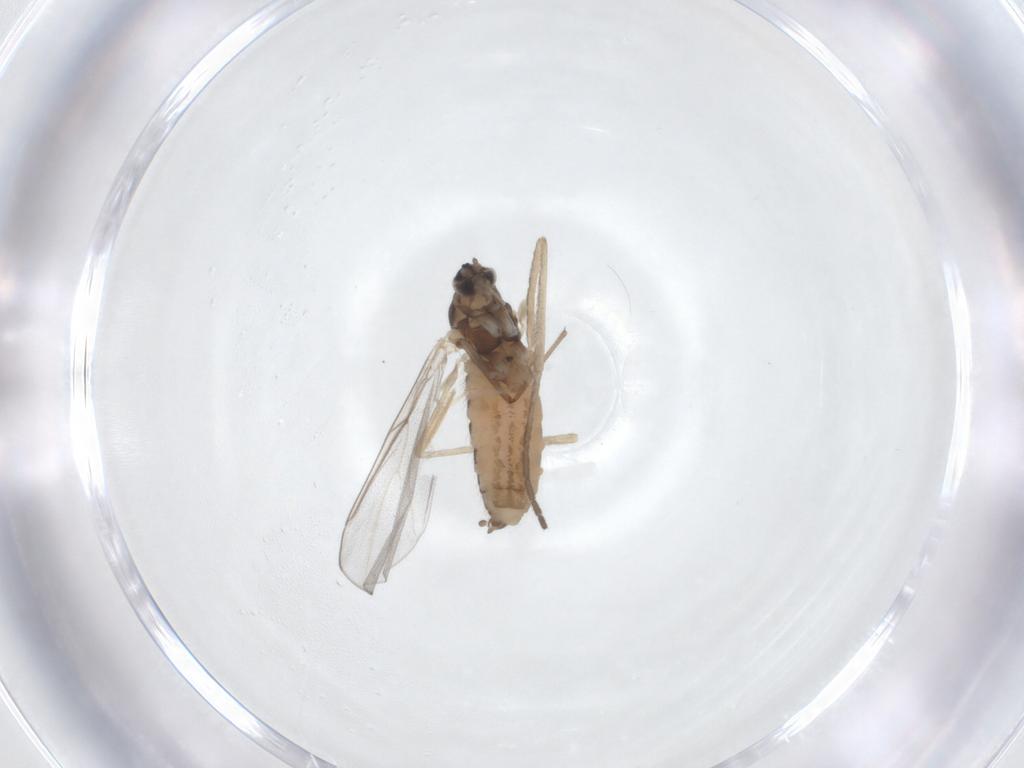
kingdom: Animalia
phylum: Arthropoda
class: Insecta
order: Diptera
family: Cecidomyiidae
